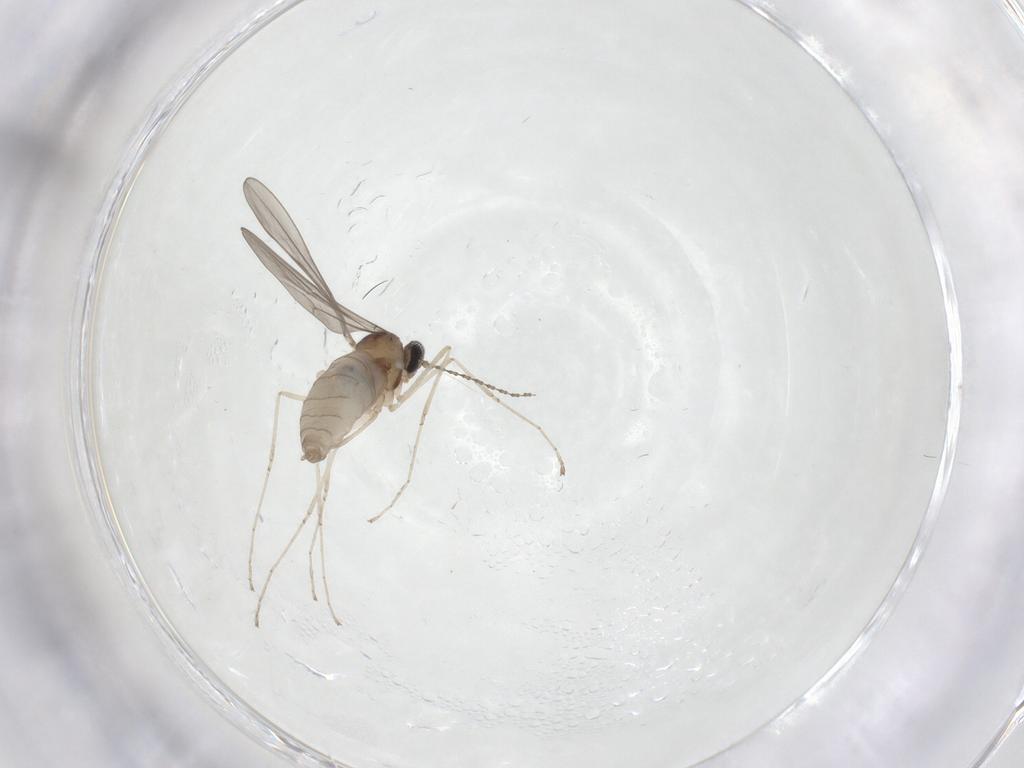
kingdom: Animalia
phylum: Arthropoda
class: Insecta
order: Diptera
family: Cecidomyiidae
